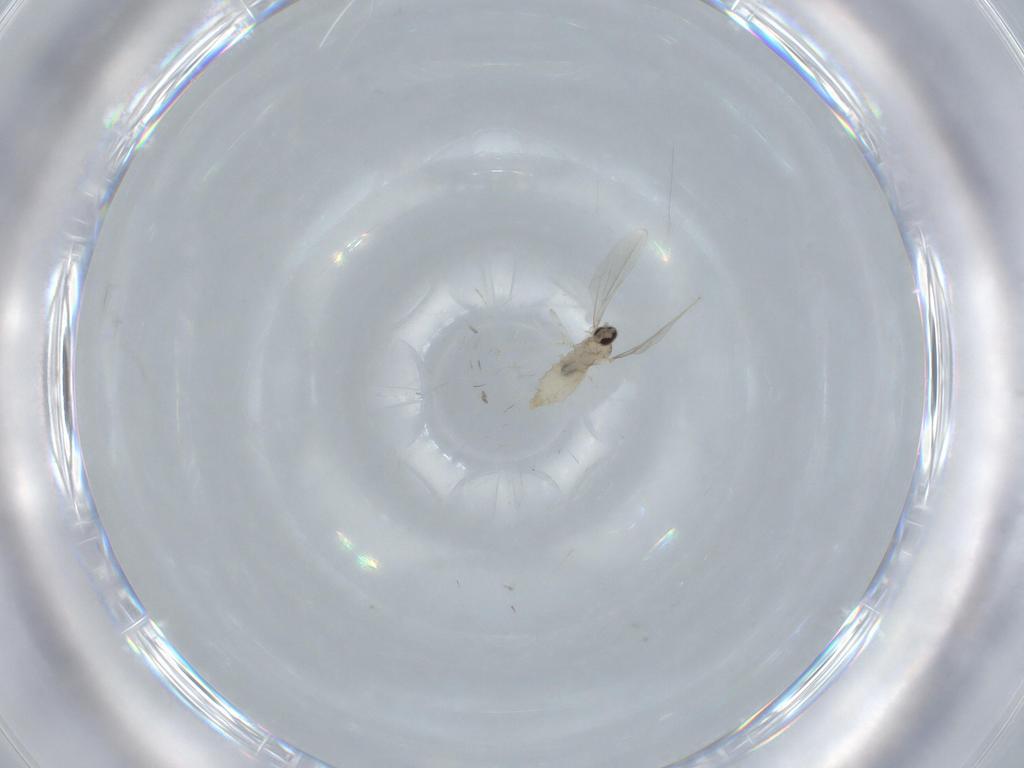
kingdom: Animalia
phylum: Arthropoda
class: Insecta
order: Diptera
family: Cecidomyiidae
